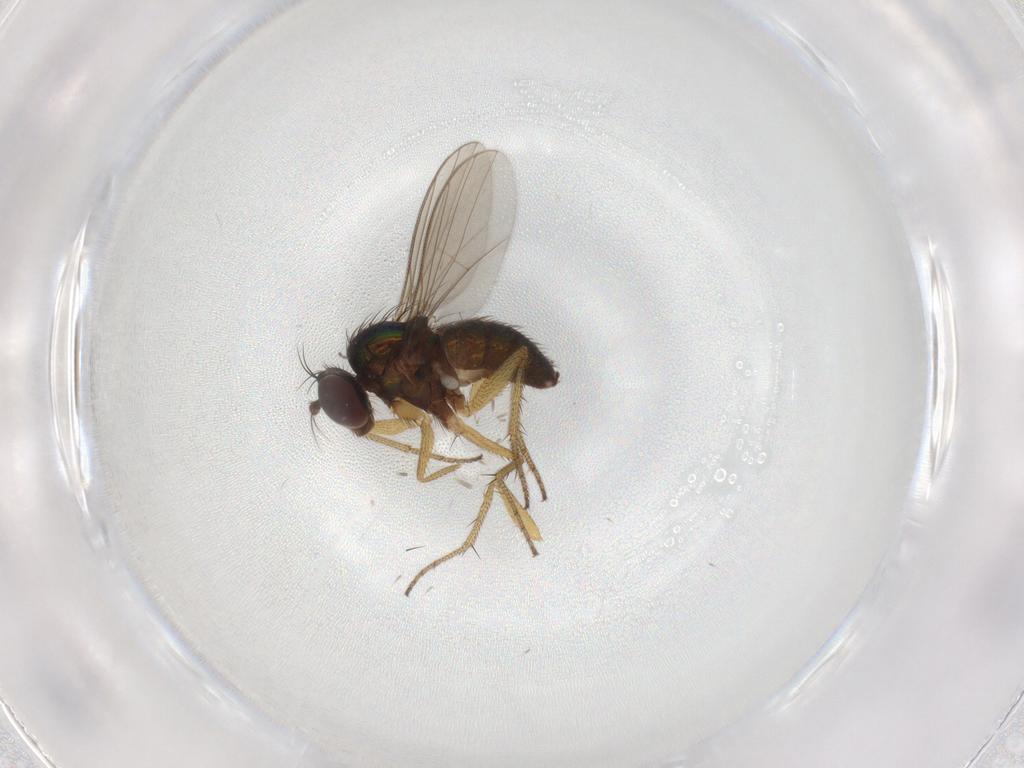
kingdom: Animalia
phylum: Arthropoda
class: Insecta
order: Diptera
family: Dolichopodidae
